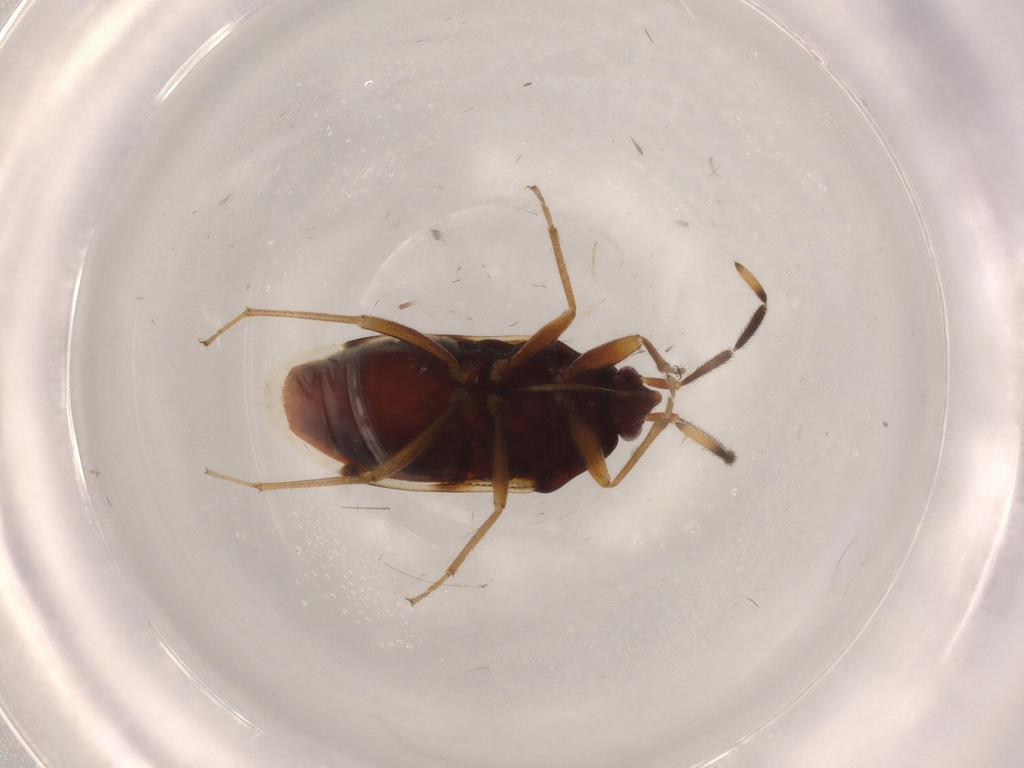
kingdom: Animalia
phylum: Arthropoda
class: Insecta
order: Hemiptera
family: Rhyparochromidae
